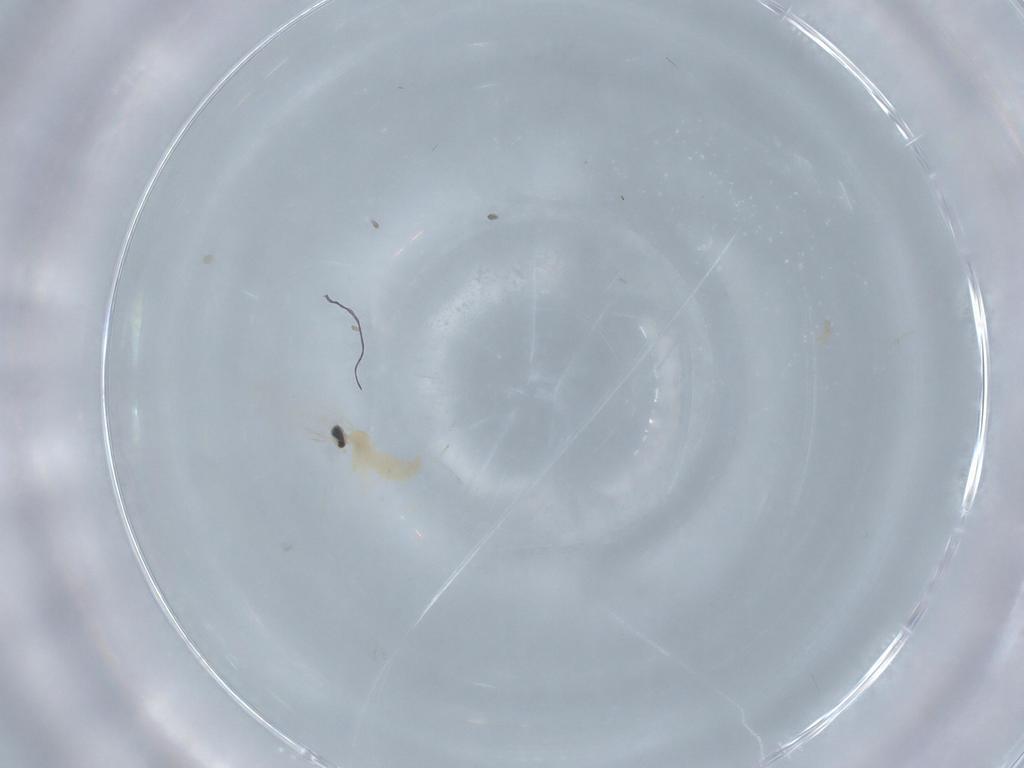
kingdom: Animalia
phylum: Arthropoda
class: Insecta
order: Diptera
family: Cecidomyiidae
